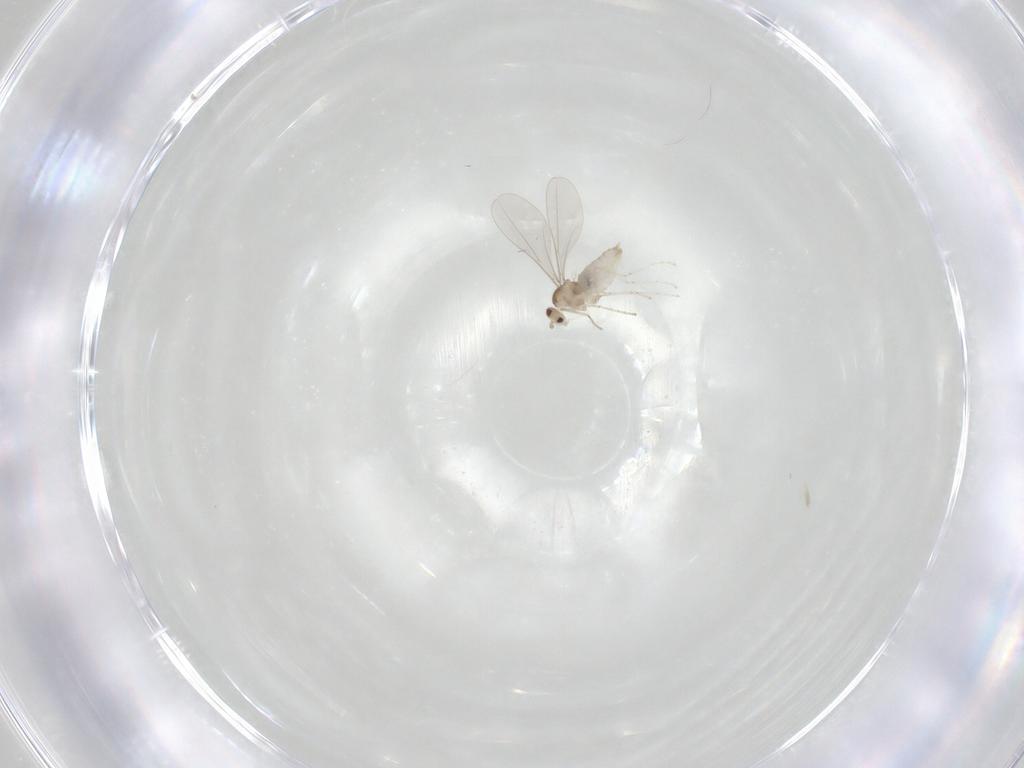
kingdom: Animalia
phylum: Arthropoda
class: Insecta
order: Diptera
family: Cecidomyiidae
